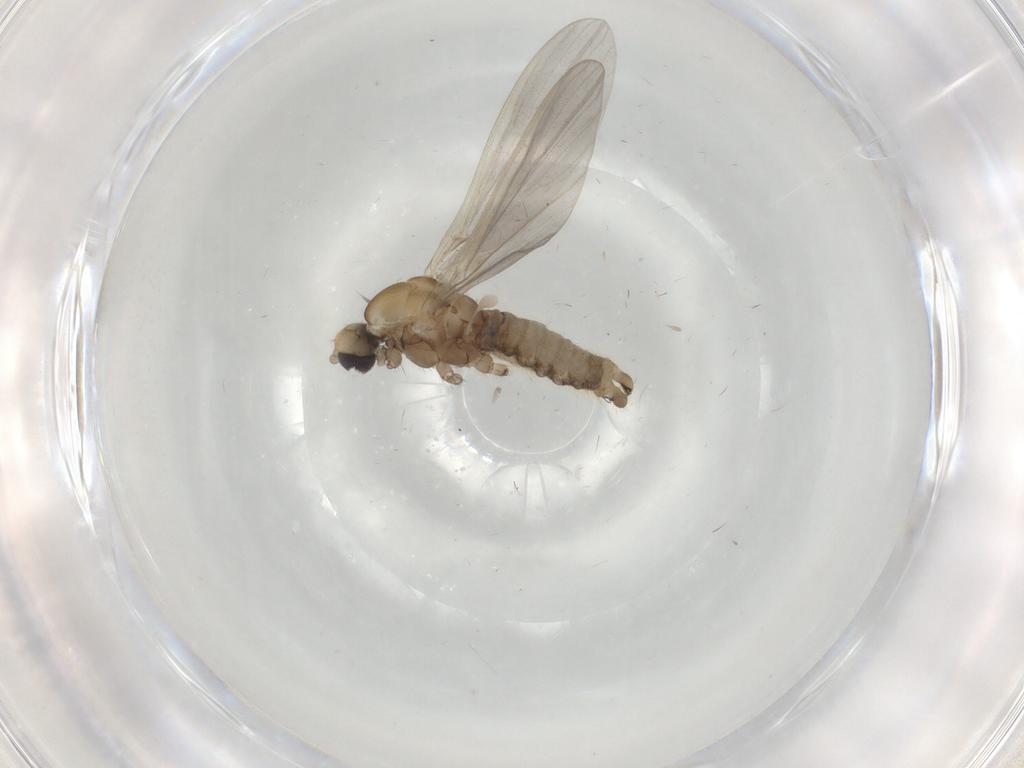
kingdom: Animalia
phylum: Arthropoda
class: Insecta
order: Diptera
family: Limoniidae
